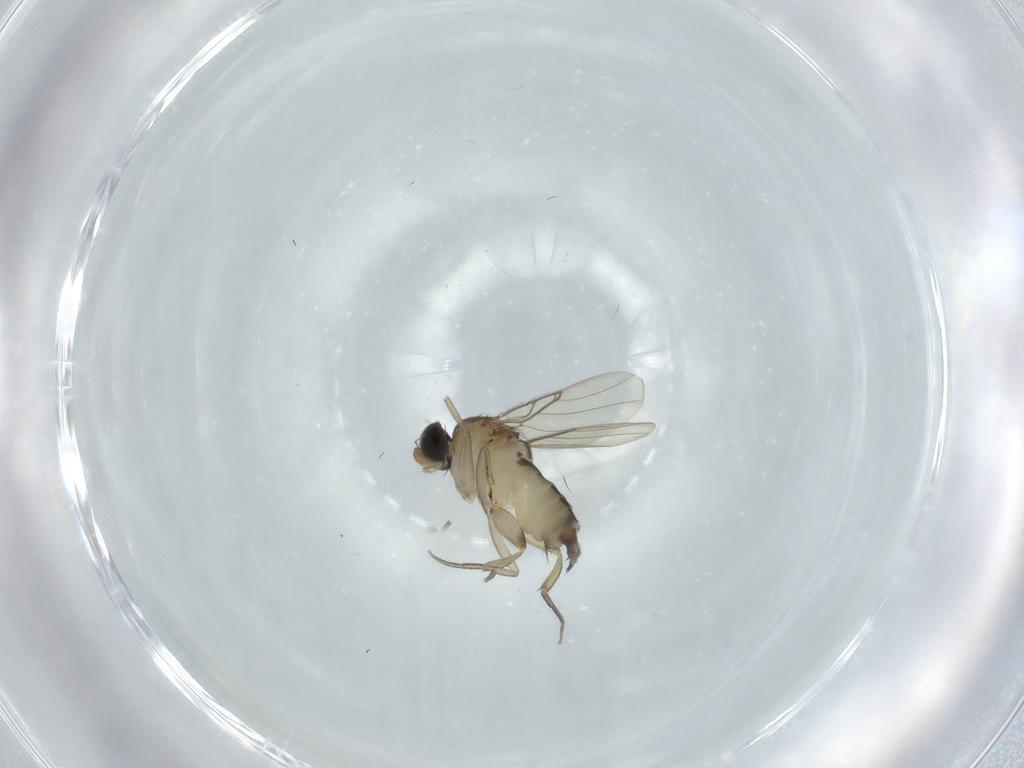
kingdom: Animalia
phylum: Arthropoda
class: Insecta
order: Diptera
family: Phoridae
